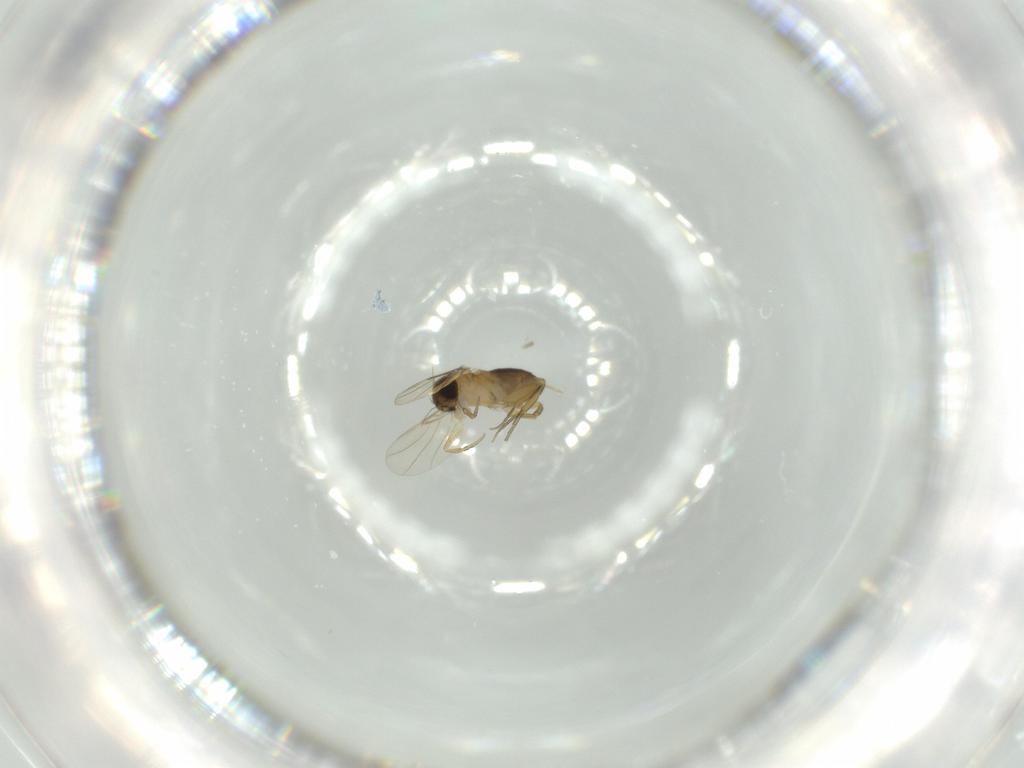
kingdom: Animalia
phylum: Arthropoda
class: Insecta
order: Diptera
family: Phoridae
